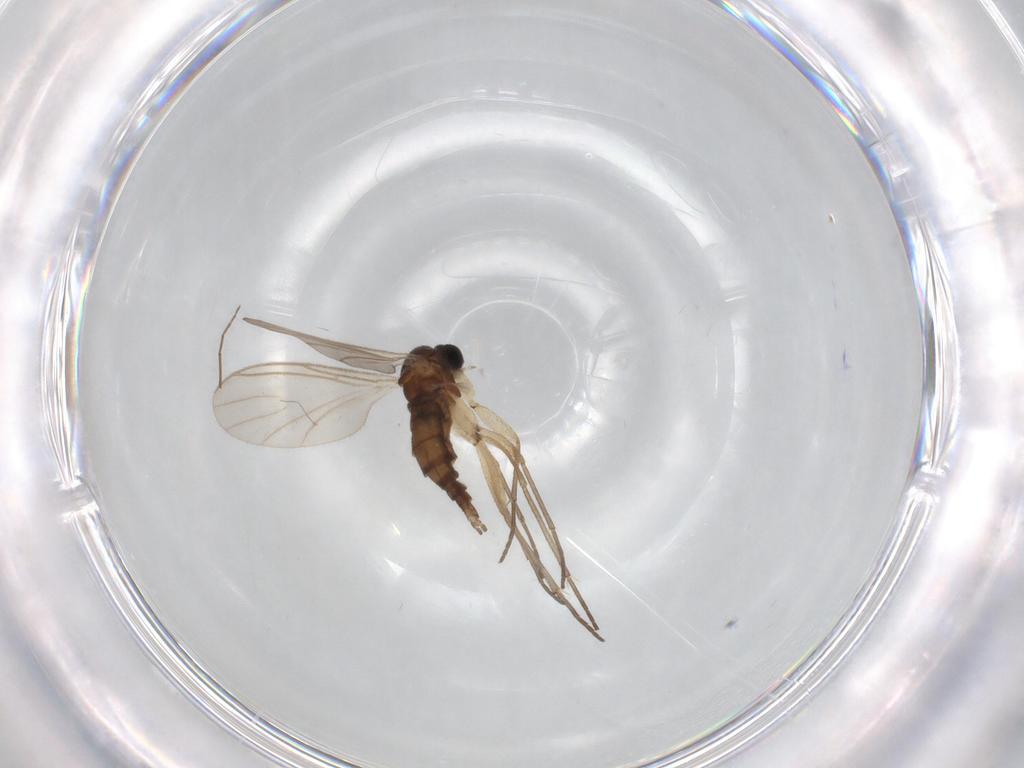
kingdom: Animalia
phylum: Arthropoda
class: Insecta
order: Diptera
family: Sciaridae
